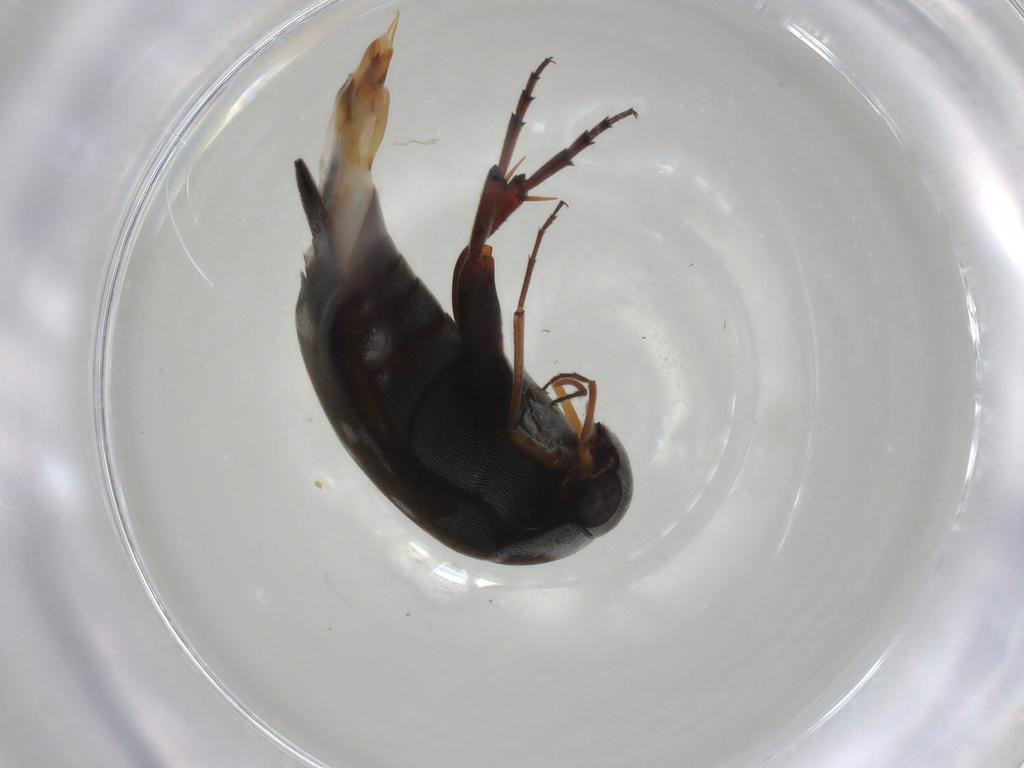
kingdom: Animalia
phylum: Arthropoda
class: Insecta
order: Coleoptera
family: Mordellidae
